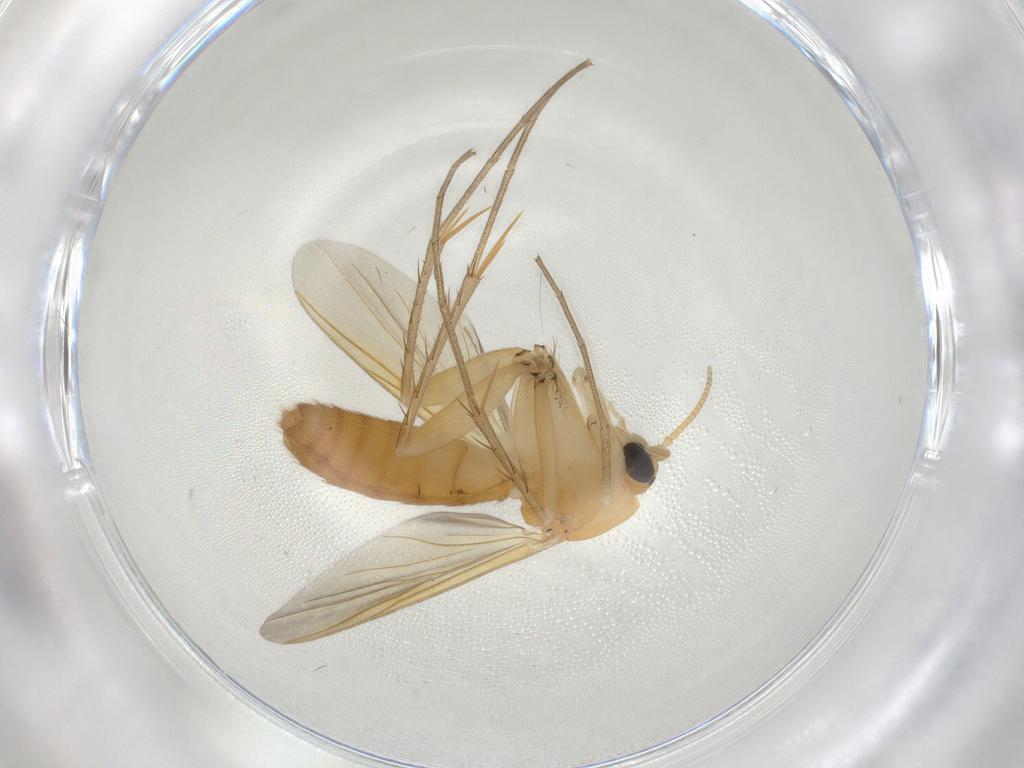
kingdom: Animalia
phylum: Arthropoda
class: Insecta
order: Diptera
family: Mycetophilidae
